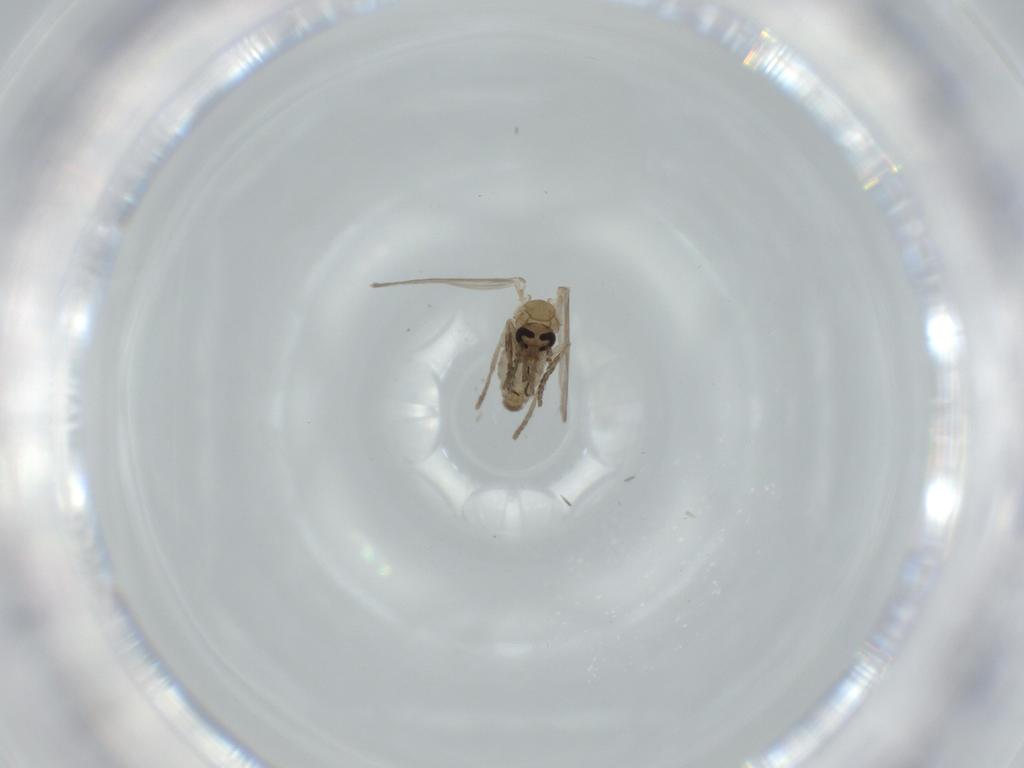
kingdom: Animalia
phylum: Arthropoda
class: Insecta
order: Diptera
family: Psychodidae
